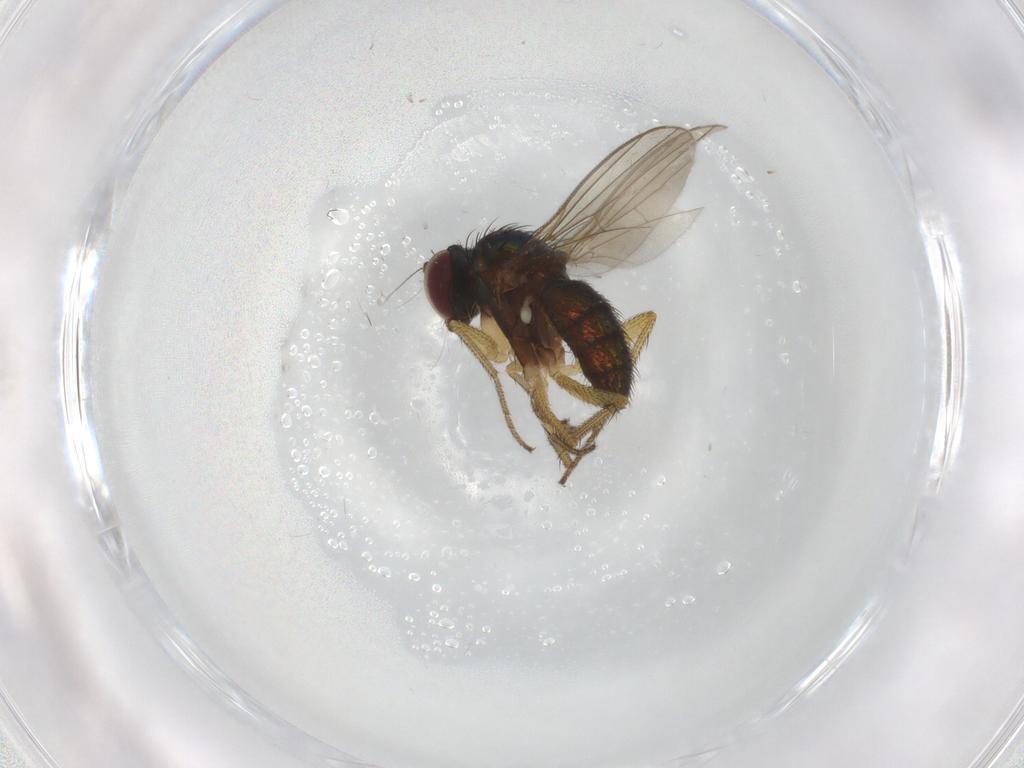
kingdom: Animalia
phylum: Arthropoda
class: Insecta
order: Diptera
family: Dolichopodidae
